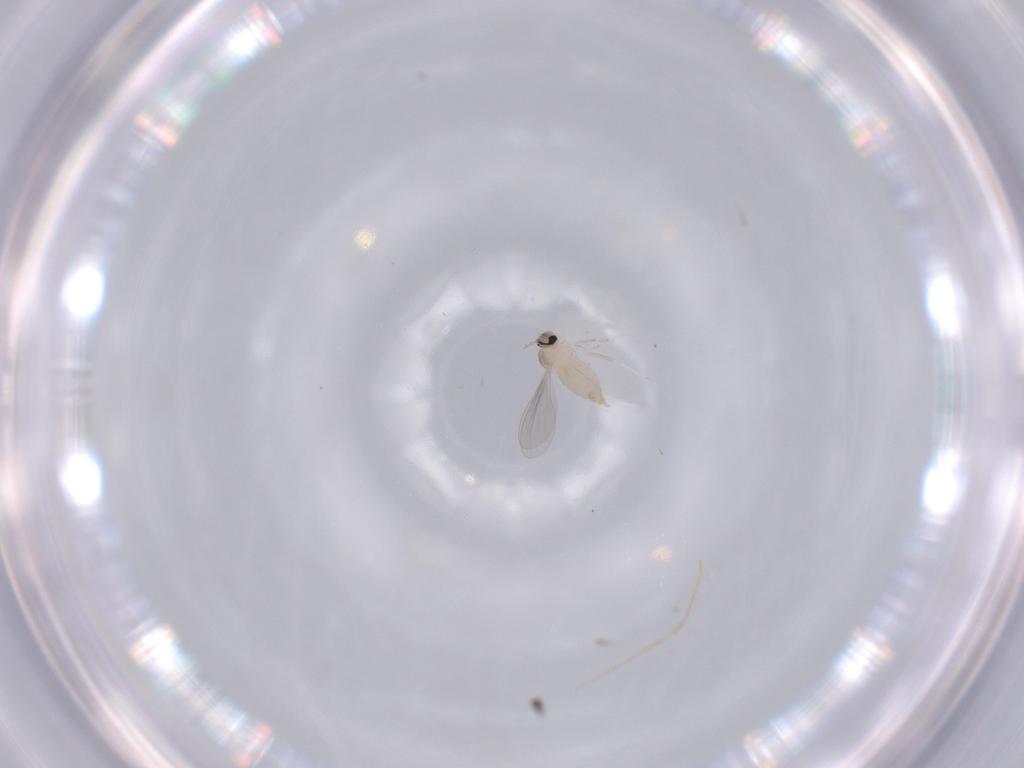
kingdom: Animalia
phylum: Arthropoda
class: Insecta
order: Diptera
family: Cecidomyiidae
